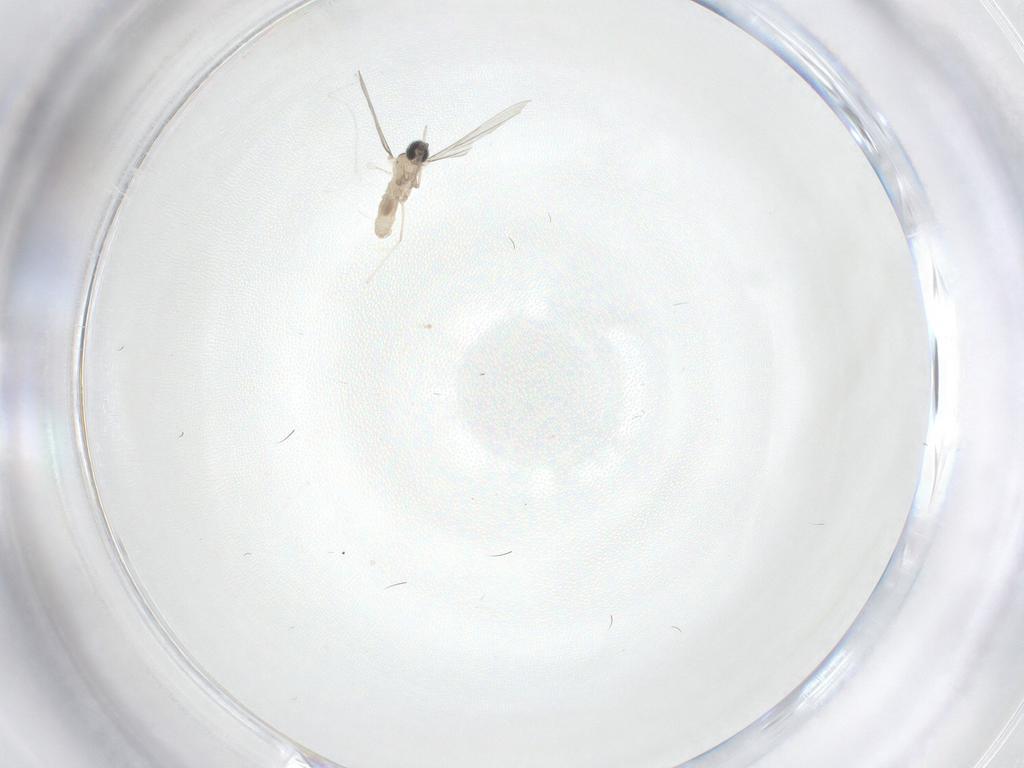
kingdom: Animalia
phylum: Arthropoda
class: Insecta
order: Diptera
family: Cecidomyiidae
